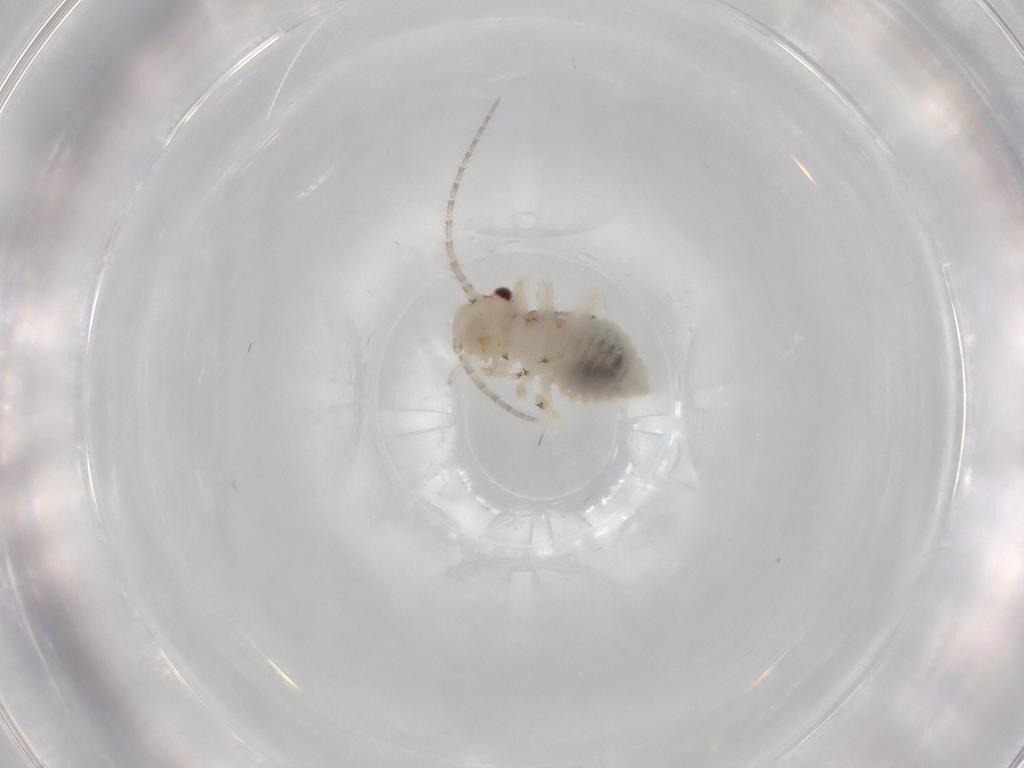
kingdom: Animalia
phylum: Arthropoda
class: Insecta
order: Psocodea
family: Amphipsocidae
